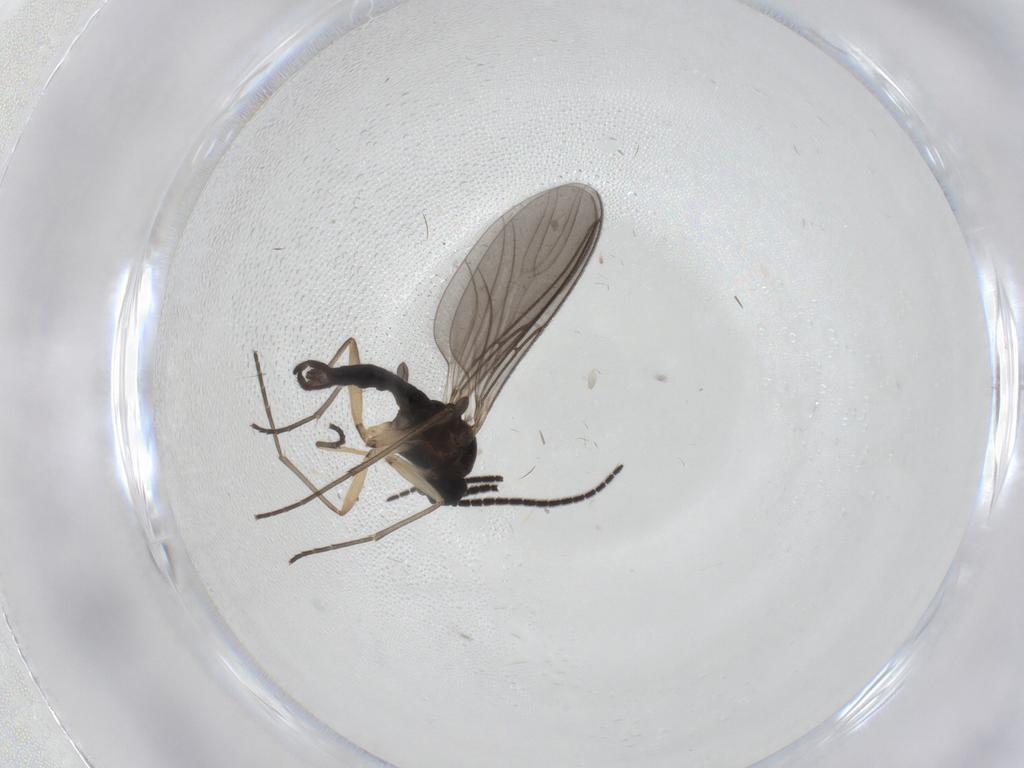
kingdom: Animalia
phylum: Arthropoda
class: Insecta
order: Diptera
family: Sciaridae
